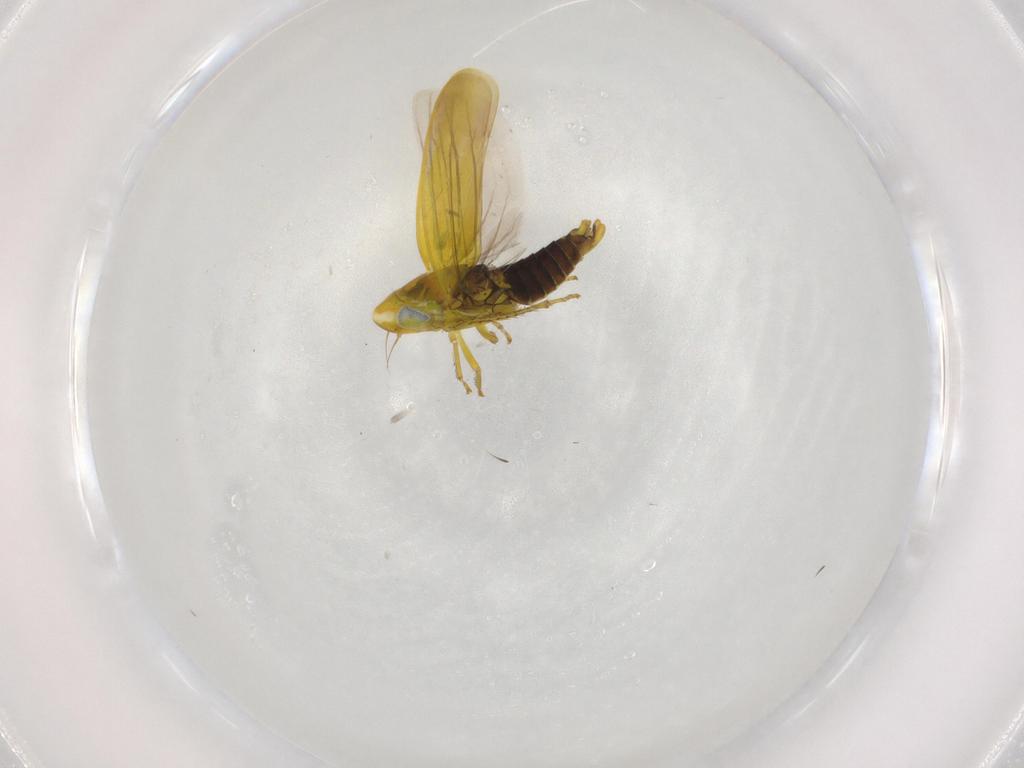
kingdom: Animalia
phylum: Arthropoda
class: Insecta
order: Hemiptera
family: Cicadellidae
